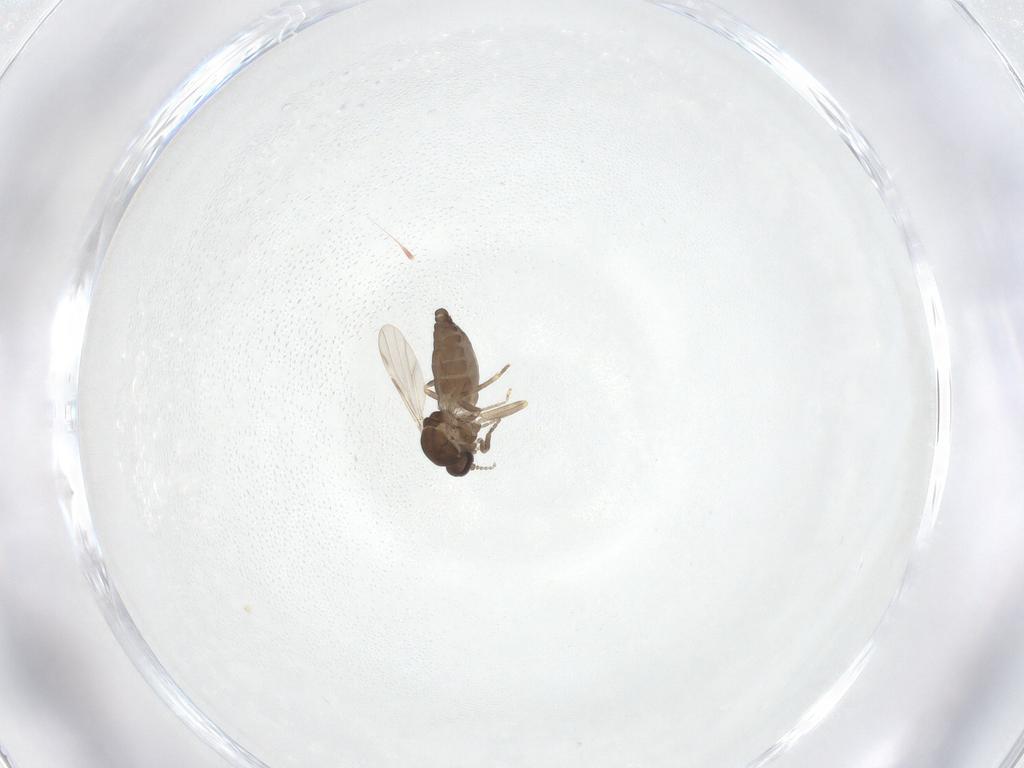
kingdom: Animalia
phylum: Arthropoda
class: Insecta
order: Diptera
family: Ceratopogonidae
